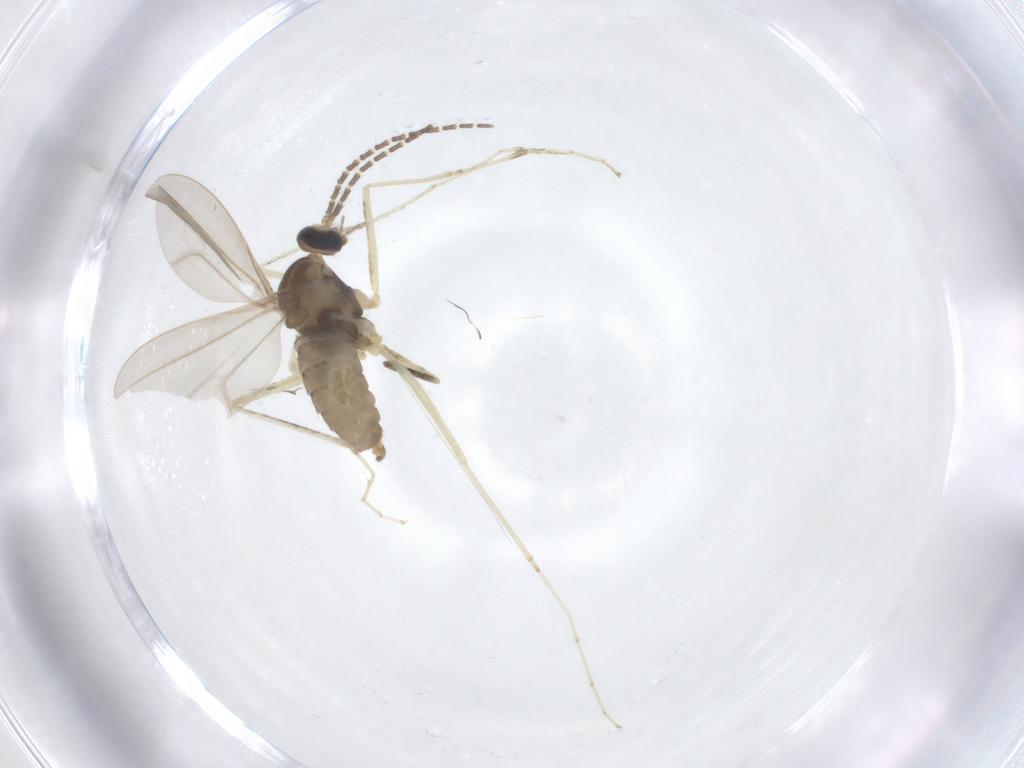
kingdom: Animalia
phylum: Arthropoda
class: Insecta
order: Diptera
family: Cecidomyiidae
